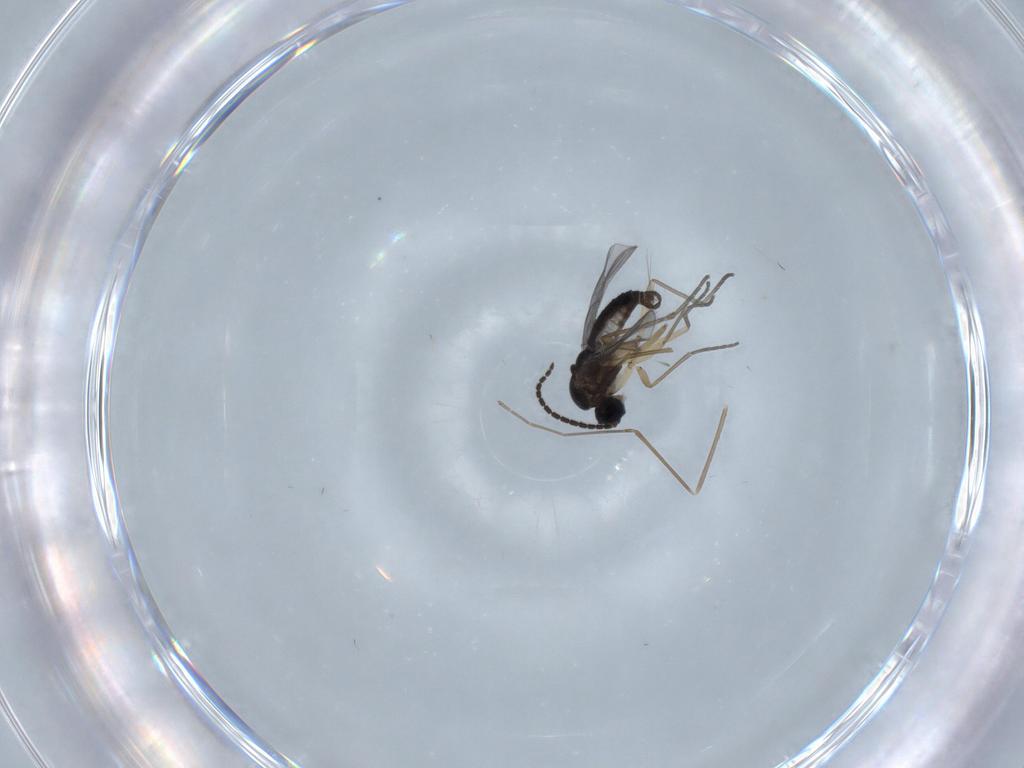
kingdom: Animalia
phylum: Arthropoda
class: Insecta
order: Diptera
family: Sciaridae
